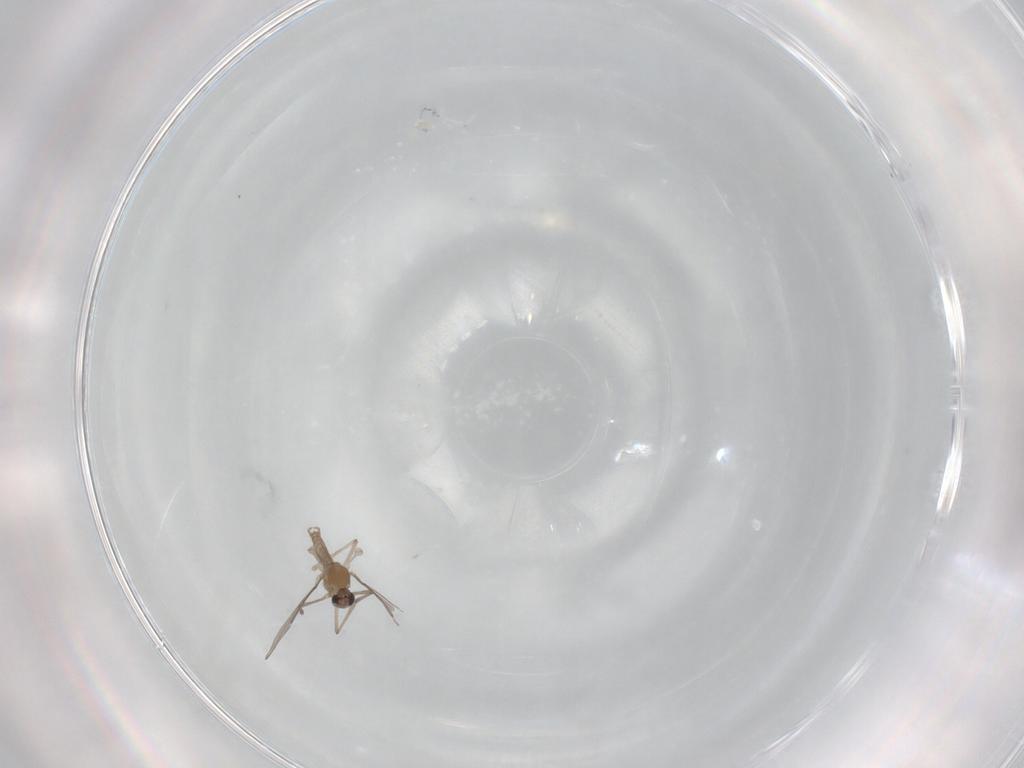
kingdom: Animalia
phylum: Arthropoda
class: Insecta
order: Diptera
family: Cecidomyiidae
